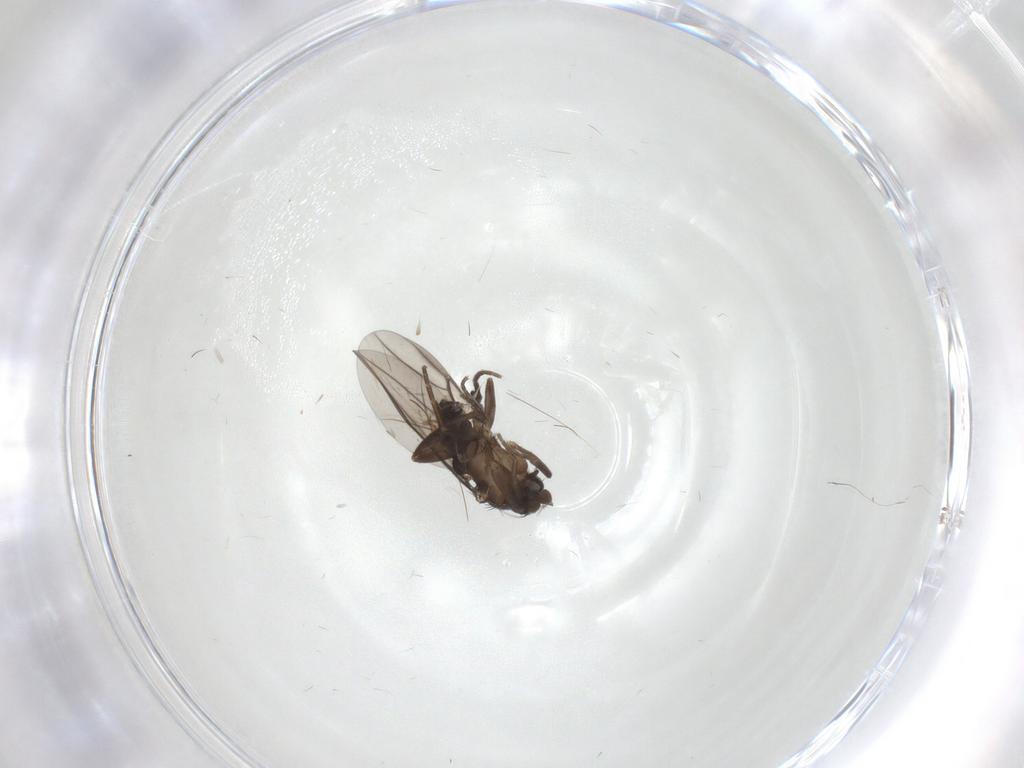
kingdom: Animalia
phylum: Arthropoda
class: Insecta
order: Diptera
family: Phoridae
